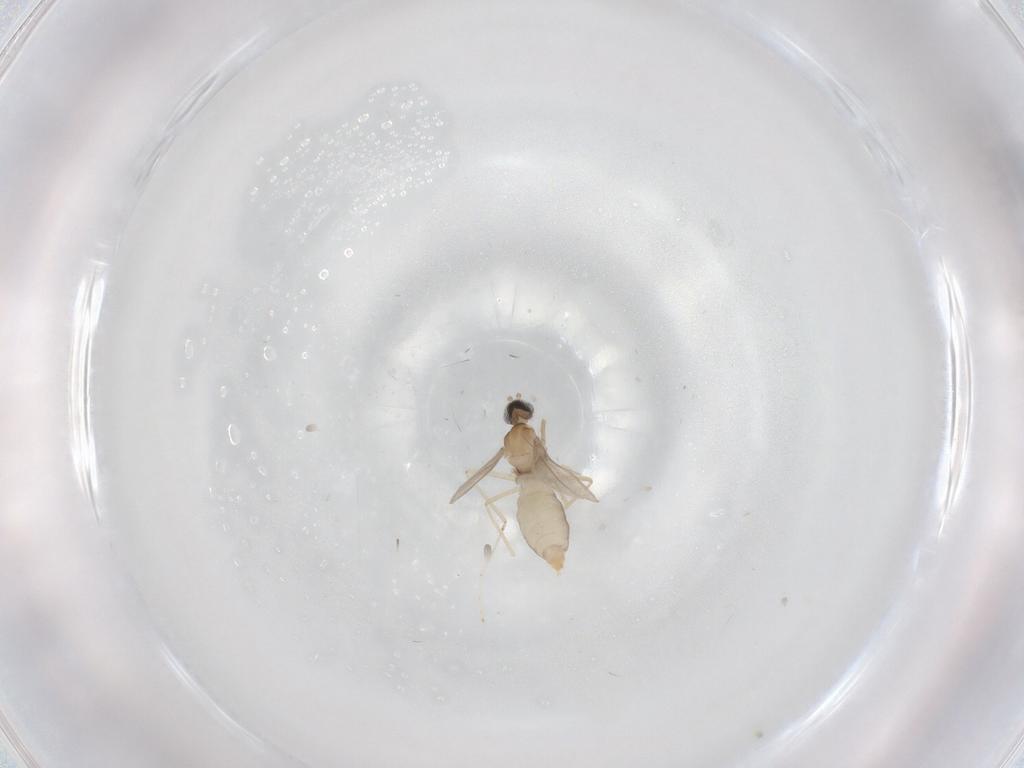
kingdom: Animalia
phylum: Arthropoda
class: Insecta
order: Diptera
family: Cecidomyiidae
